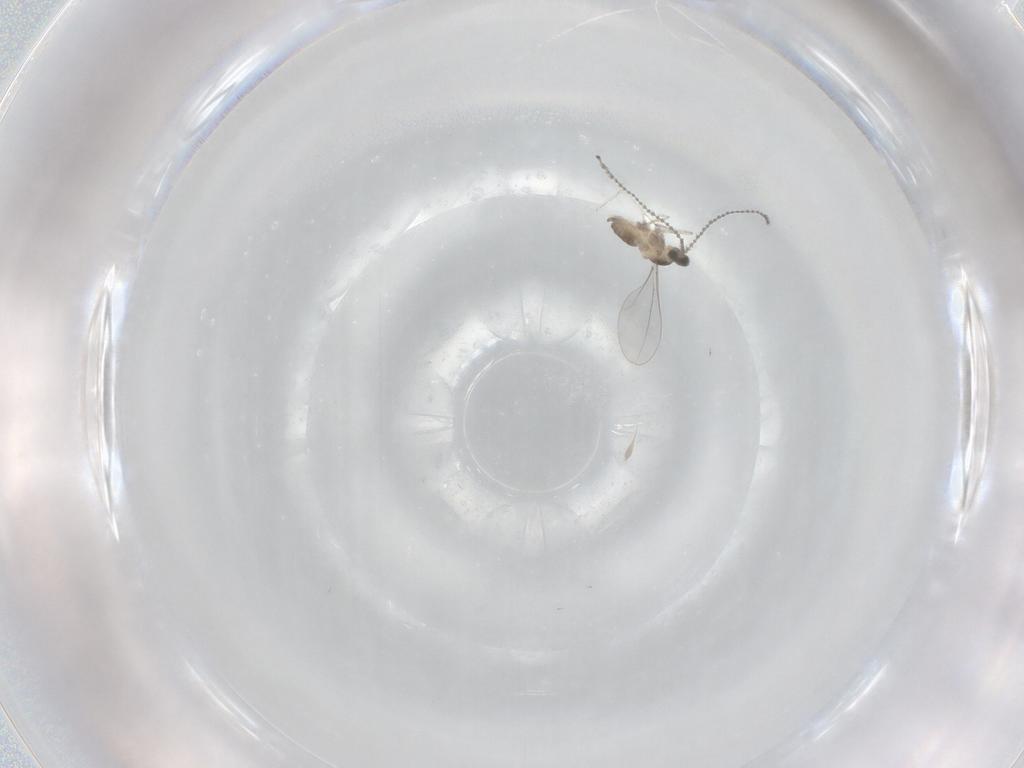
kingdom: Animalia
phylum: Arthropoda
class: Insecta
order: Diptera
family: Cecidomyiidae
